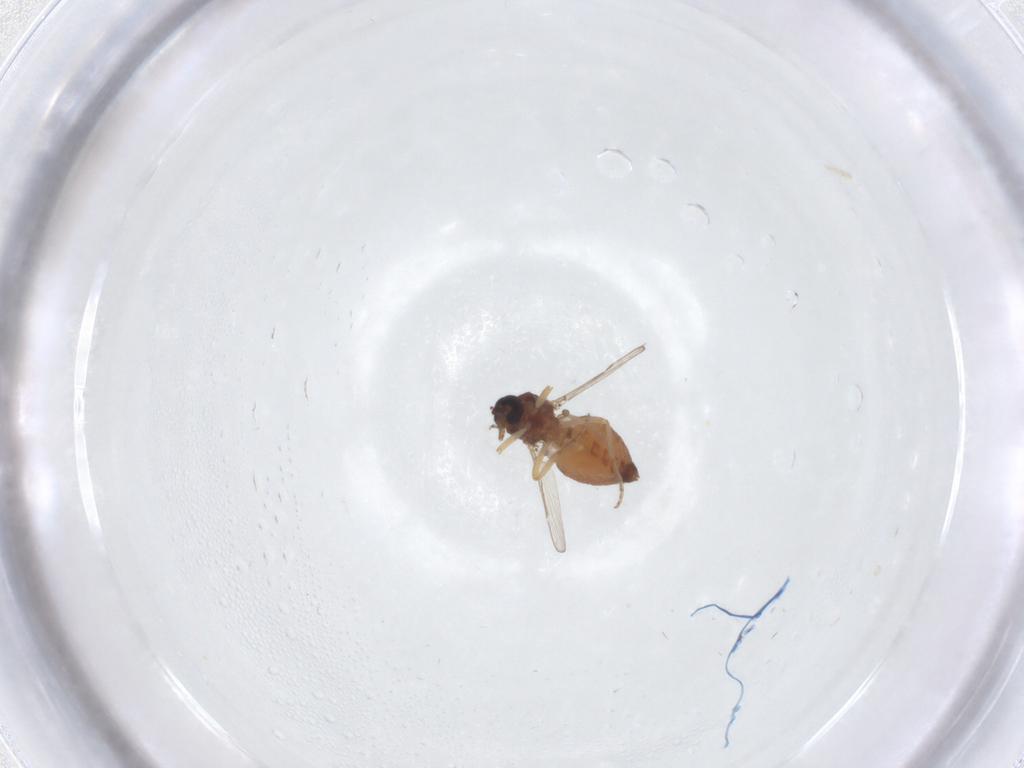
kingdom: Animalia
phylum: Arthropoda
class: Insecta
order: Diptera
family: Ceratopogonidae
